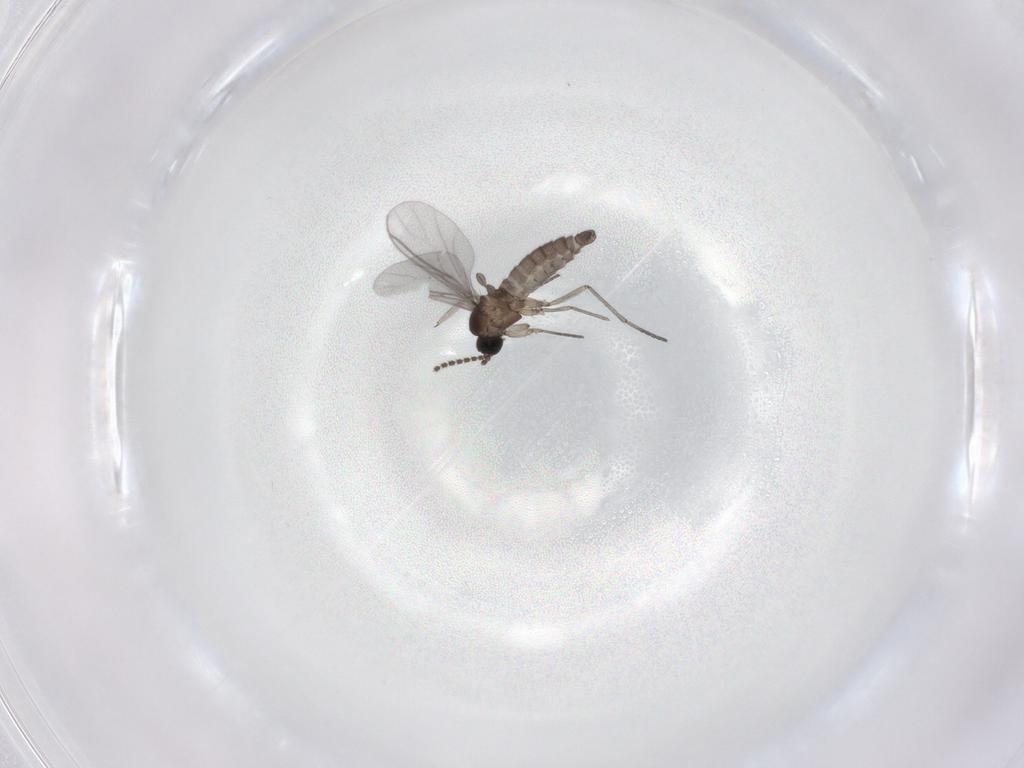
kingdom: Animalia
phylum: Arthropoda
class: Insecta
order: Diptera
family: Sciaridae
